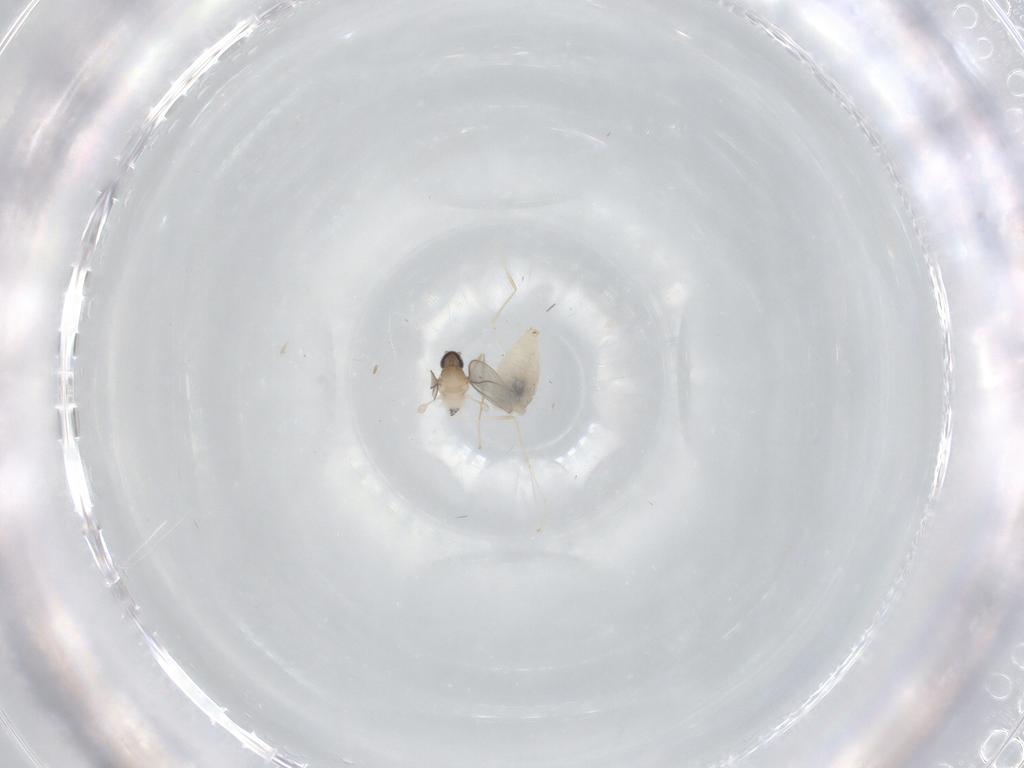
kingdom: Animalia
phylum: Arthropoda
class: Insecta
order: Diptera
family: Cecidomyiidae
